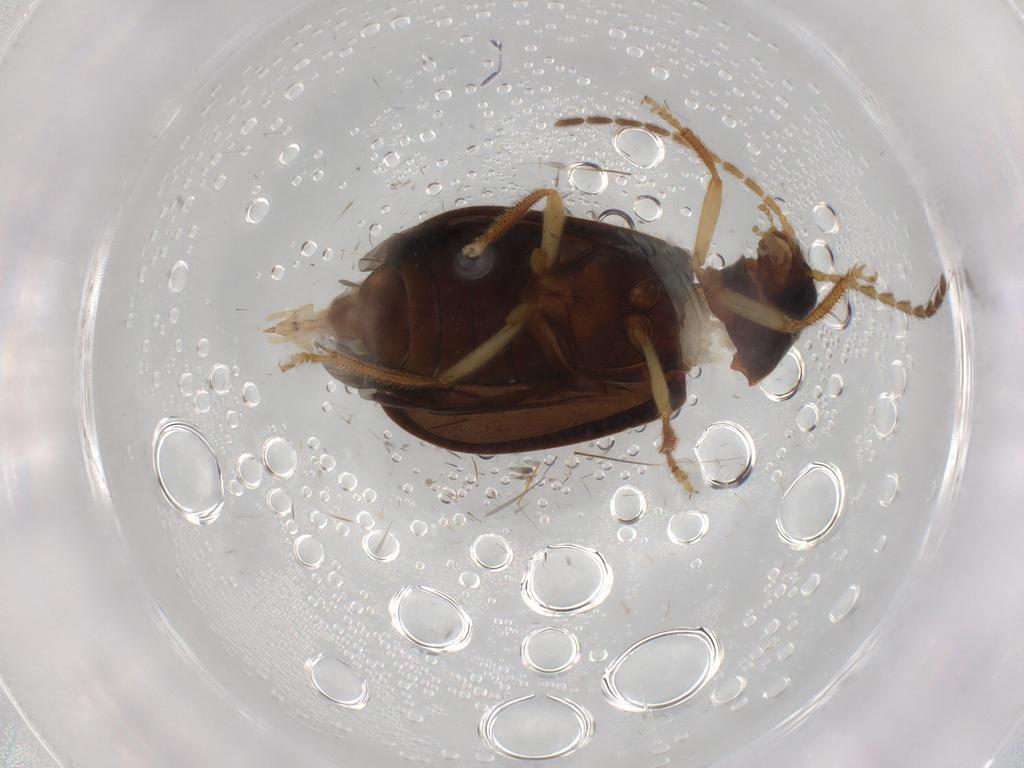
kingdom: Animalia
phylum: Arthropoda
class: Insecta
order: Coleoptera
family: Ptilodactylidae
